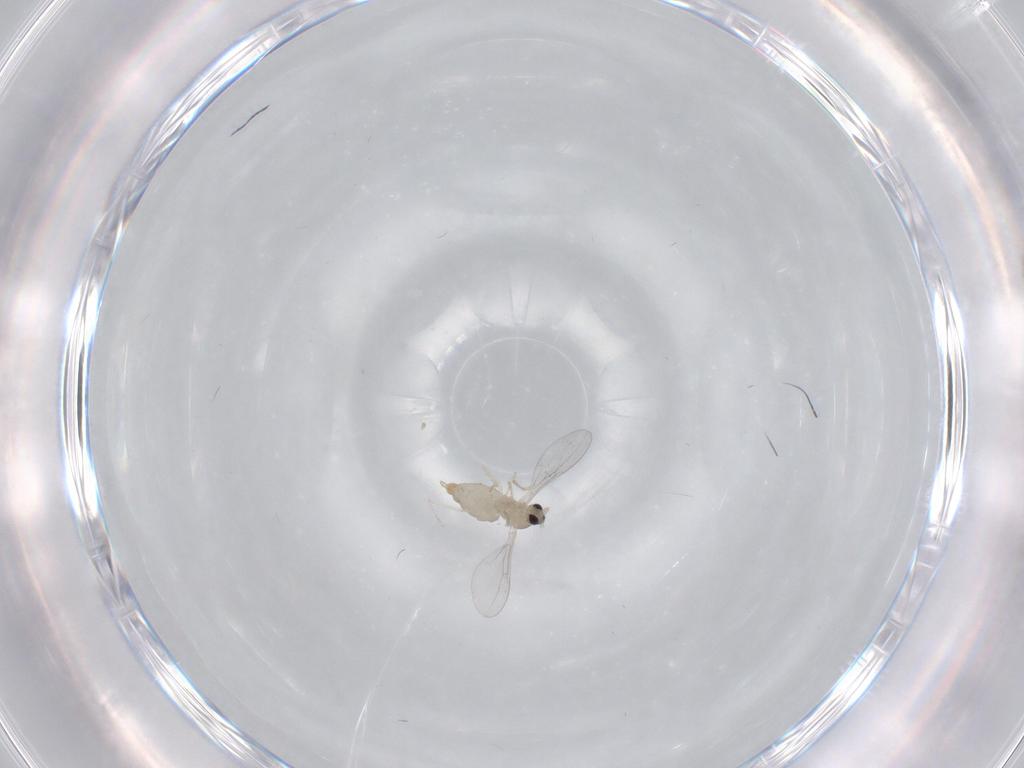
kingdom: Animalia
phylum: Arthropoda
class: Insecta
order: Diptera
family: Cecidomyiidae
